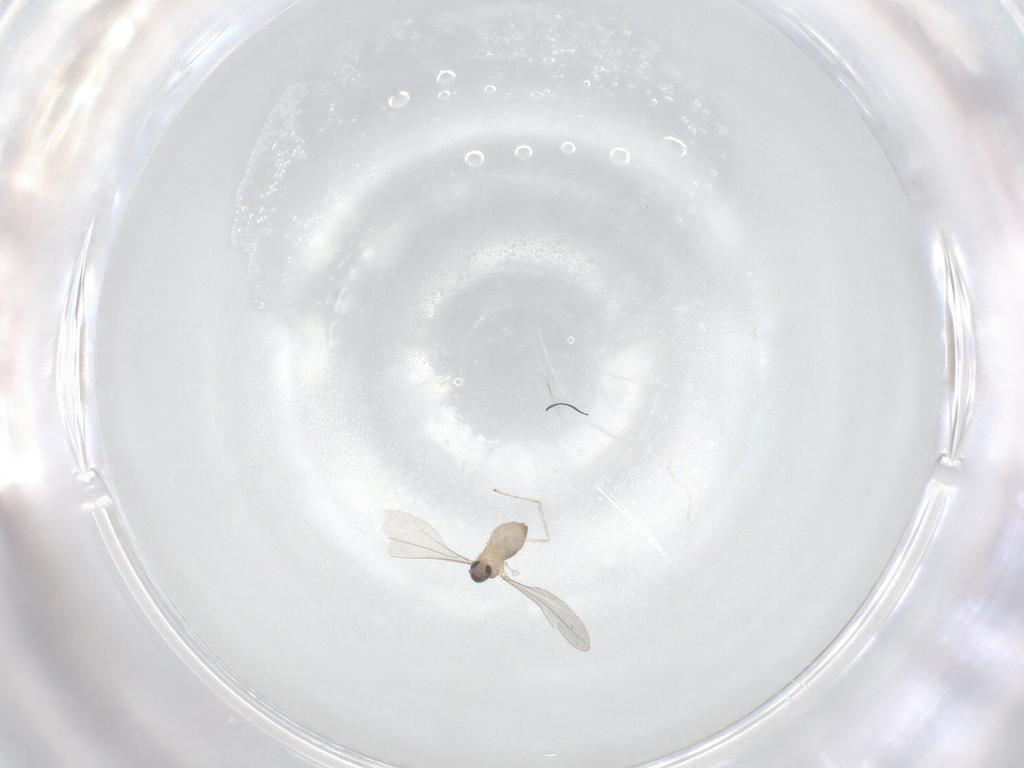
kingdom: Animalia
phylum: Arthropoda
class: Insecta
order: Diptera
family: Cecidomyiidae
